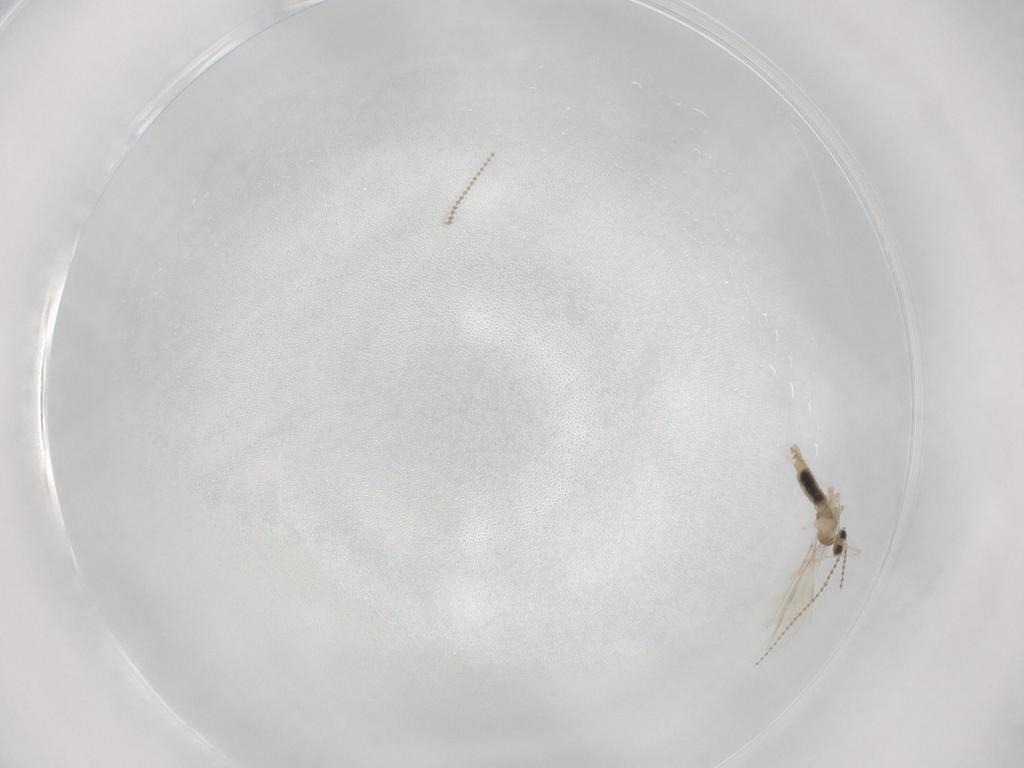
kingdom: Animalia
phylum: Arthropoda
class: Insecta
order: Diptera
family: Cecidomyiidae
